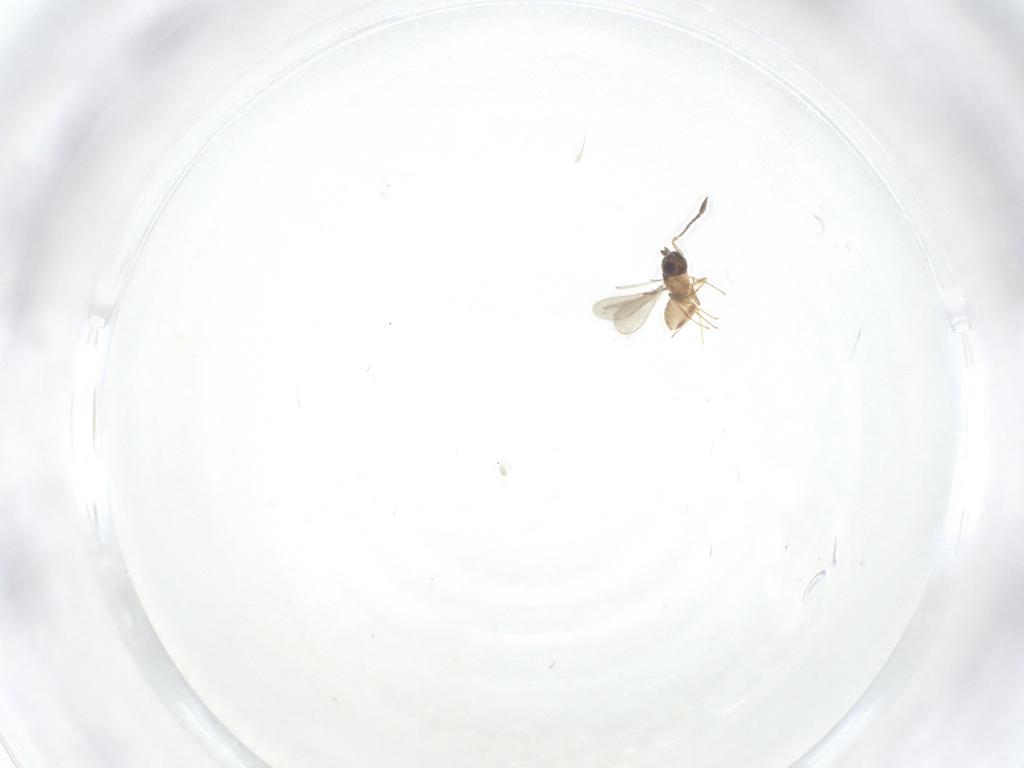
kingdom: Animalia
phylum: Arthropoda
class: Insecta
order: Hymenoptera
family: Mymaridae
